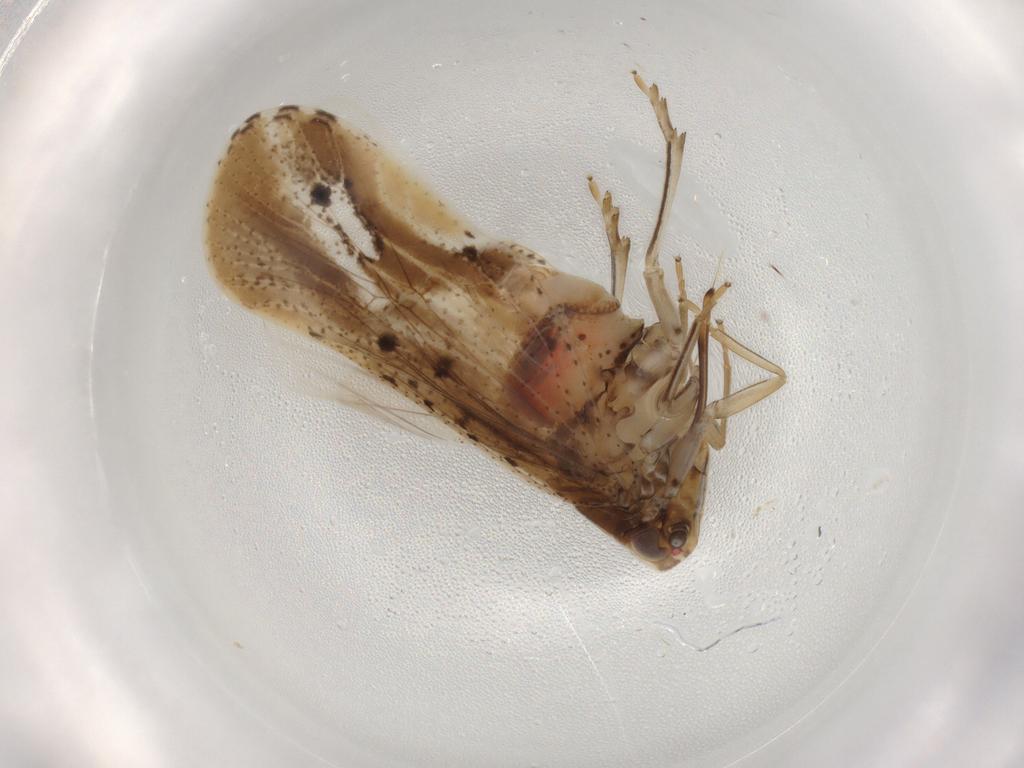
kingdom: Animalia
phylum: Arthropoda
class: Insecta
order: Hemiptera
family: Cixiidae
